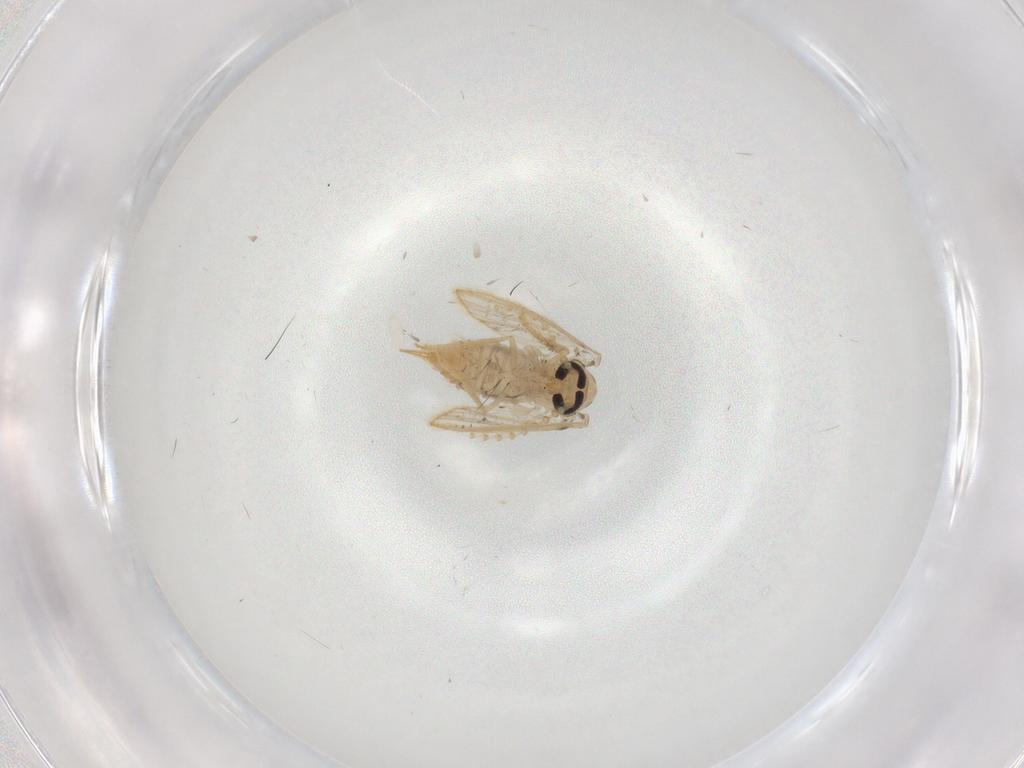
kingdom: Animalia
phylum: Arthropoda
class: Insecta
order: Diptera
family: Psychodidae
